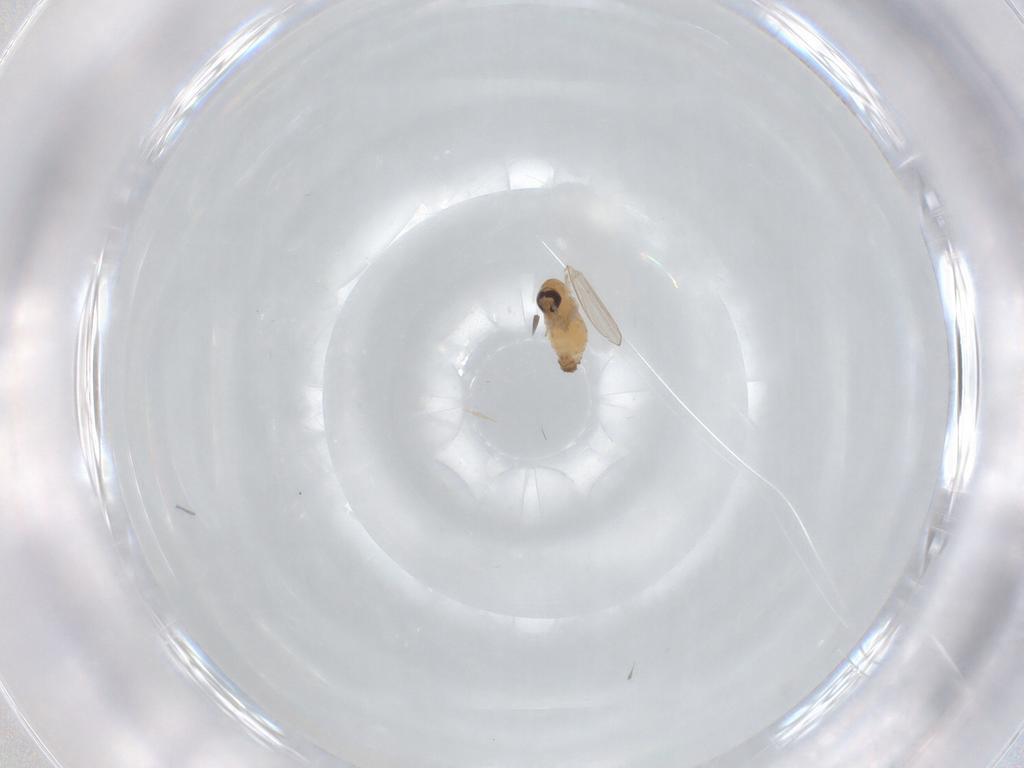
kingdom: Animalia
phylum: Arthropoda
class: Insecta
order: Diptera
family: Psychodidae
